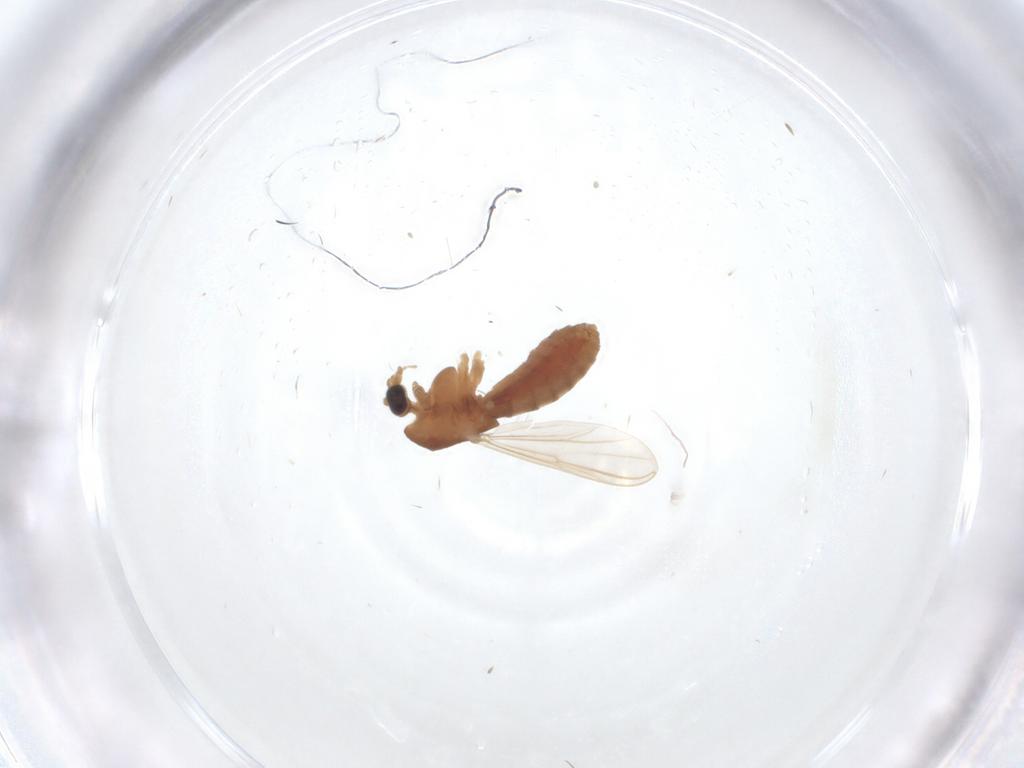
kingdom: Animalia
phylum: Arthropoda
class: Insecta
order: Diptera
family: Chironomidae
